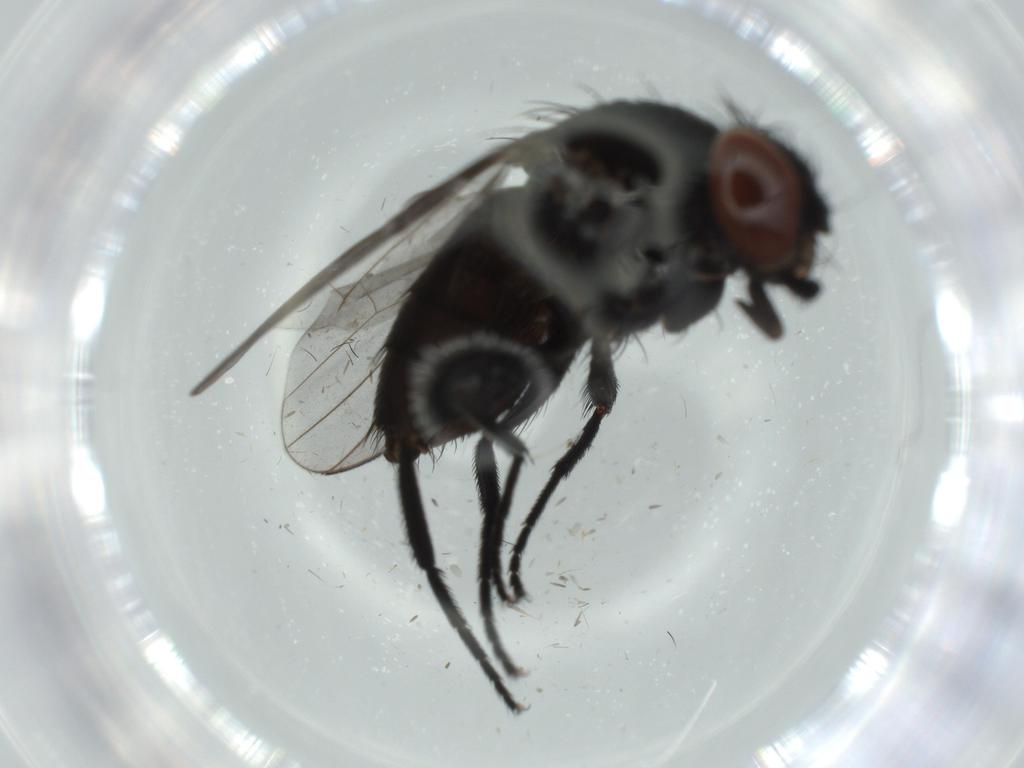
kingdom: Animalia
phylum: Arthropoda
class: Insecta
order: Diptera
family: Milichiidae
